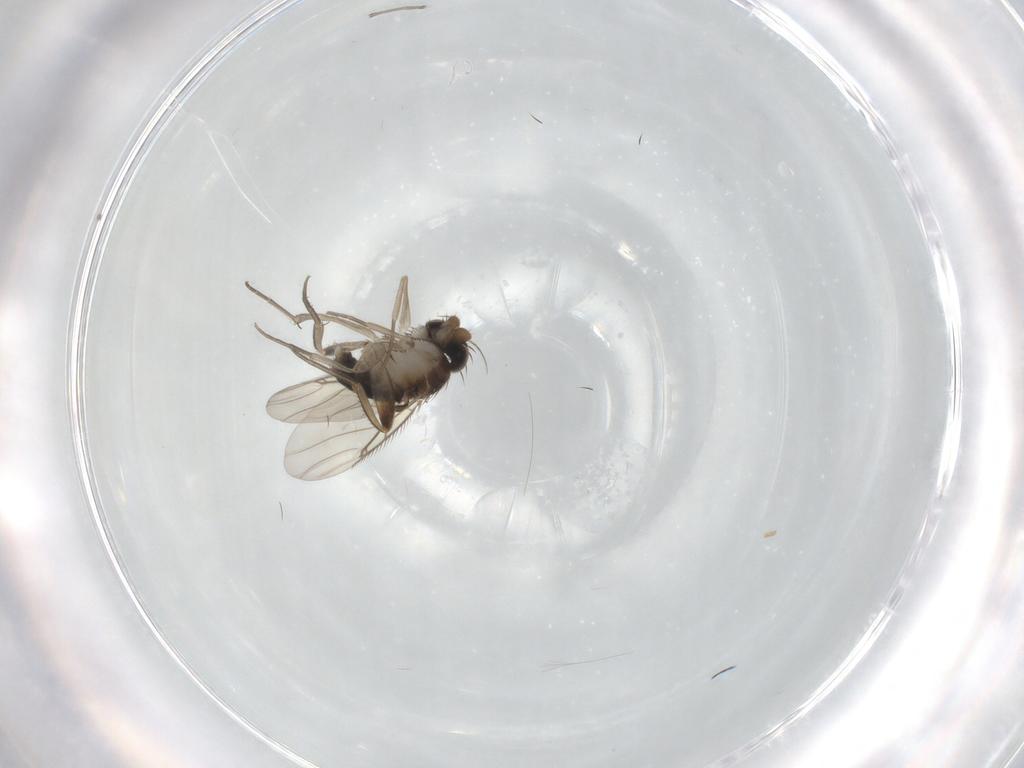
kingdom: Animalia
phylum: Arthropoda
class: Insecta
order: Diptera
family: Phoridae
